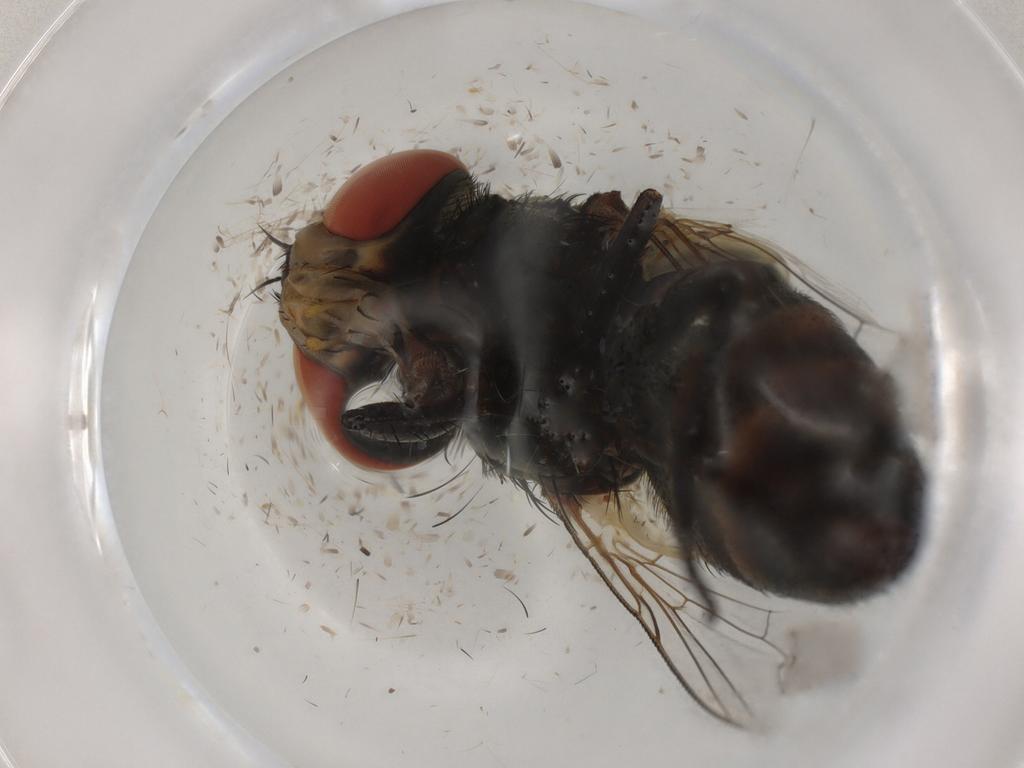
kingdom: Animalia
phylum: Arthropoda
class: Insecta
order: Diptera
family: Sarcophagidae
